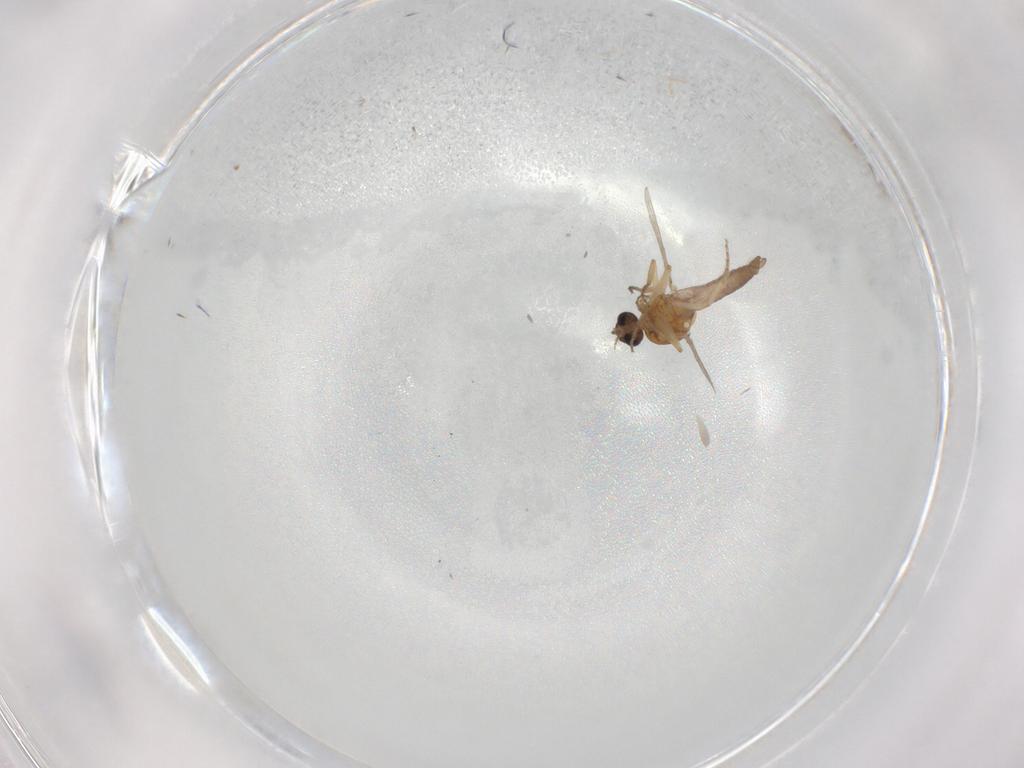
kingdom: Animalia
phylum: Arthropoda
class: Insecta
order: Diptera
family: Ceratopogonidae
